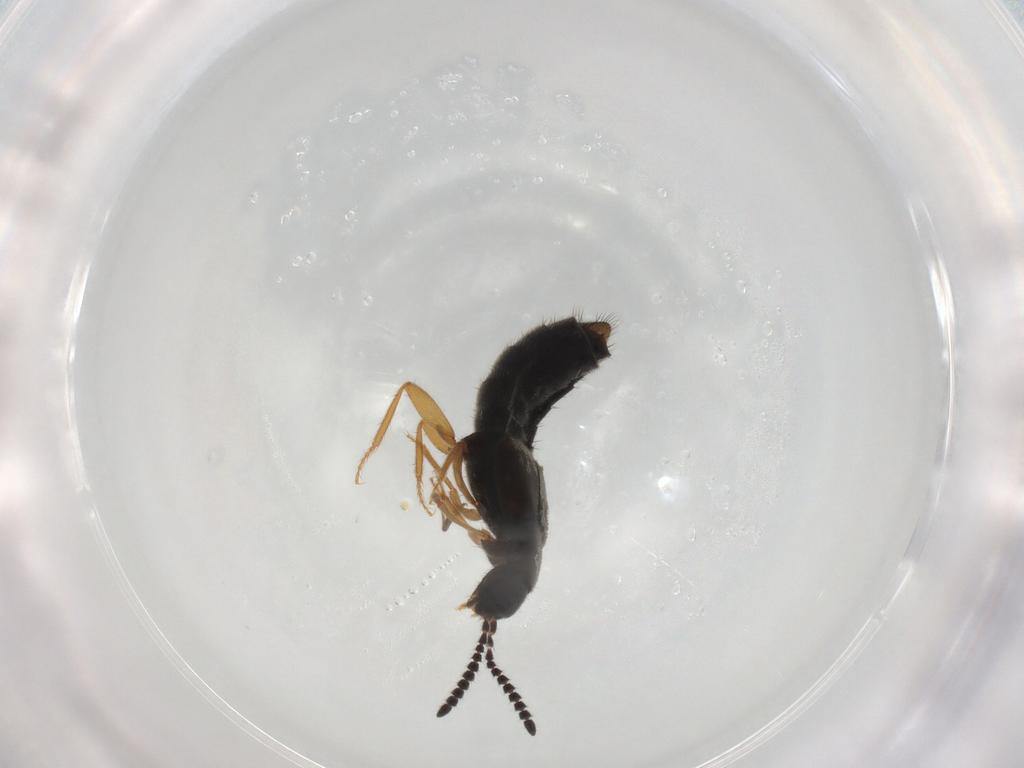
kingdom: Animalia
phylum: Arthropoda
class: Insecta
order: Coleoptera
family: Staphylinidae
